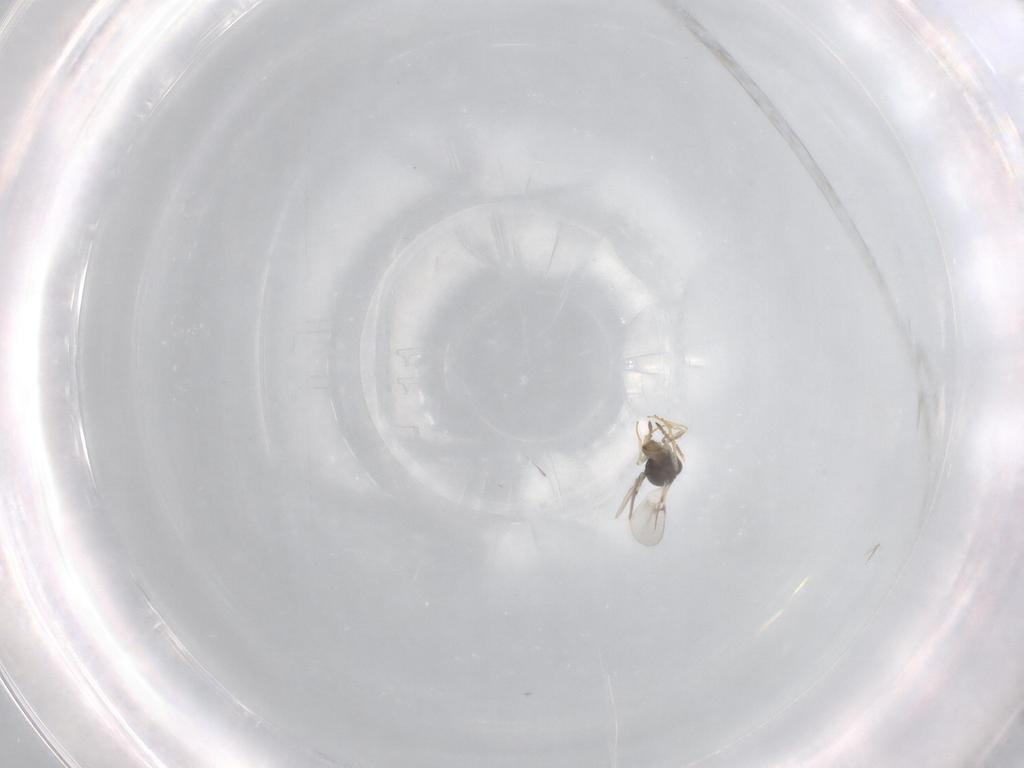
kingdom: Animalia
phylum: Arthropoda
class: Insecta
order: Hymenoptera
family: Scelionidae
